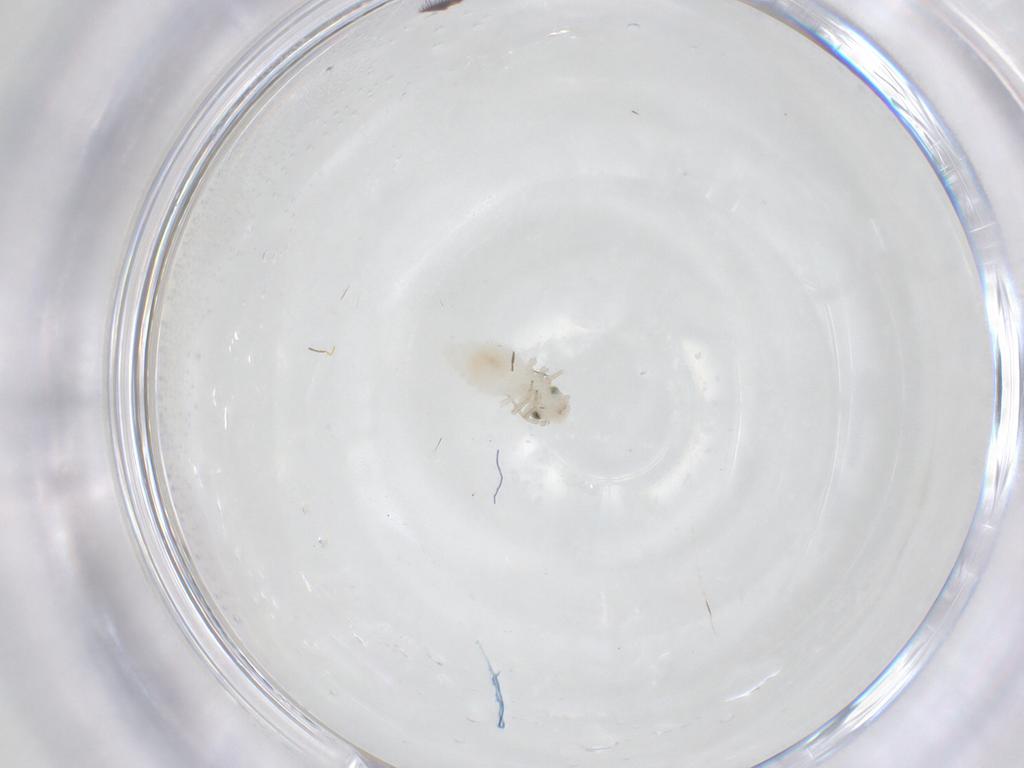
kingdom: Animalia
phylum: Arthropoda
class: Insecta
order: Psocodea
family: Caeciliusidae
